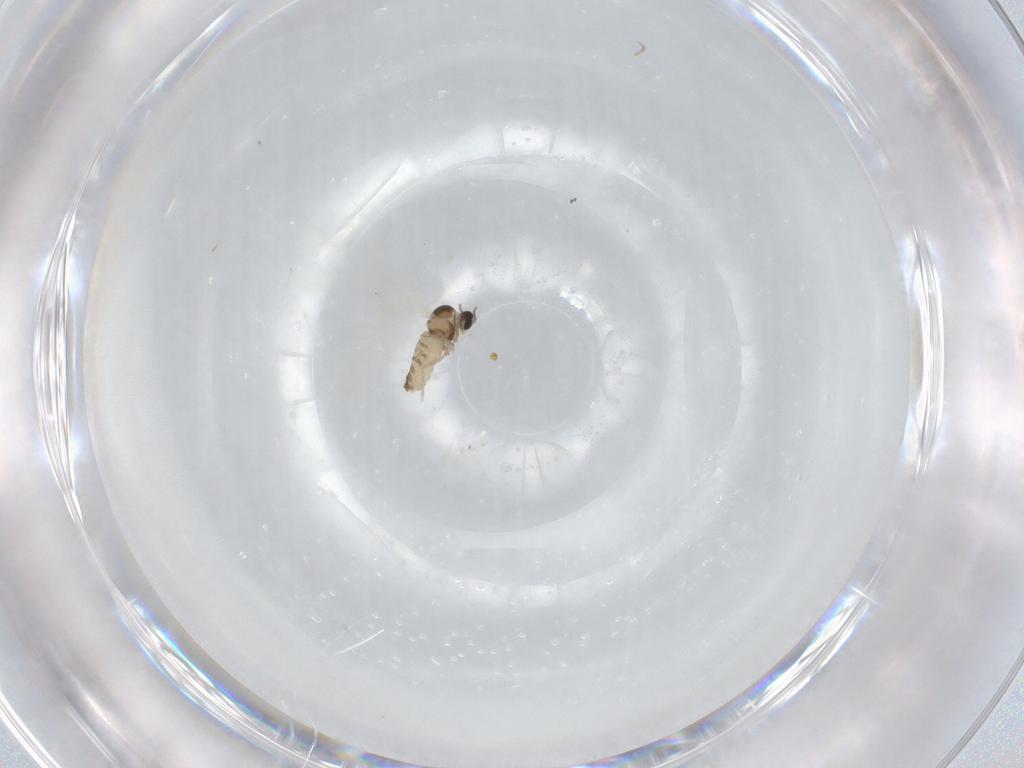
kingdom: Animalia
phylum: Arthropoda
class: Insecta
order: Diptera
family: Cecidomyiidae
